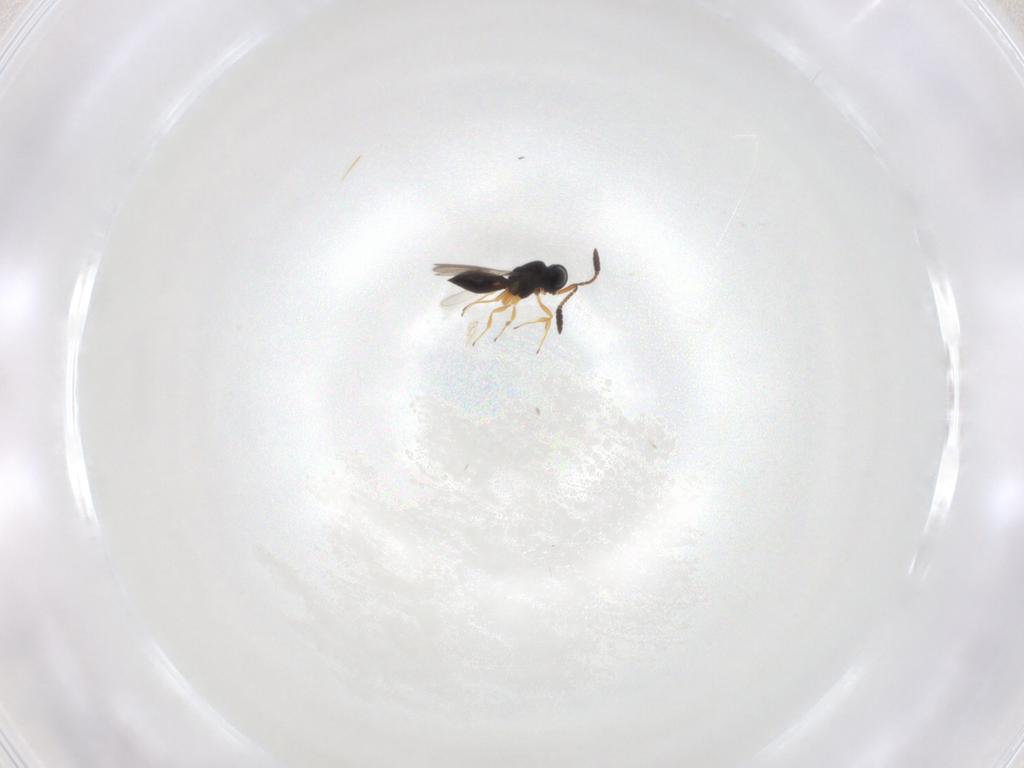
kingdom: Animalia
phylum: Arthropoda
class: Insecta
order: Hymenoptera
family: Scelionidae
